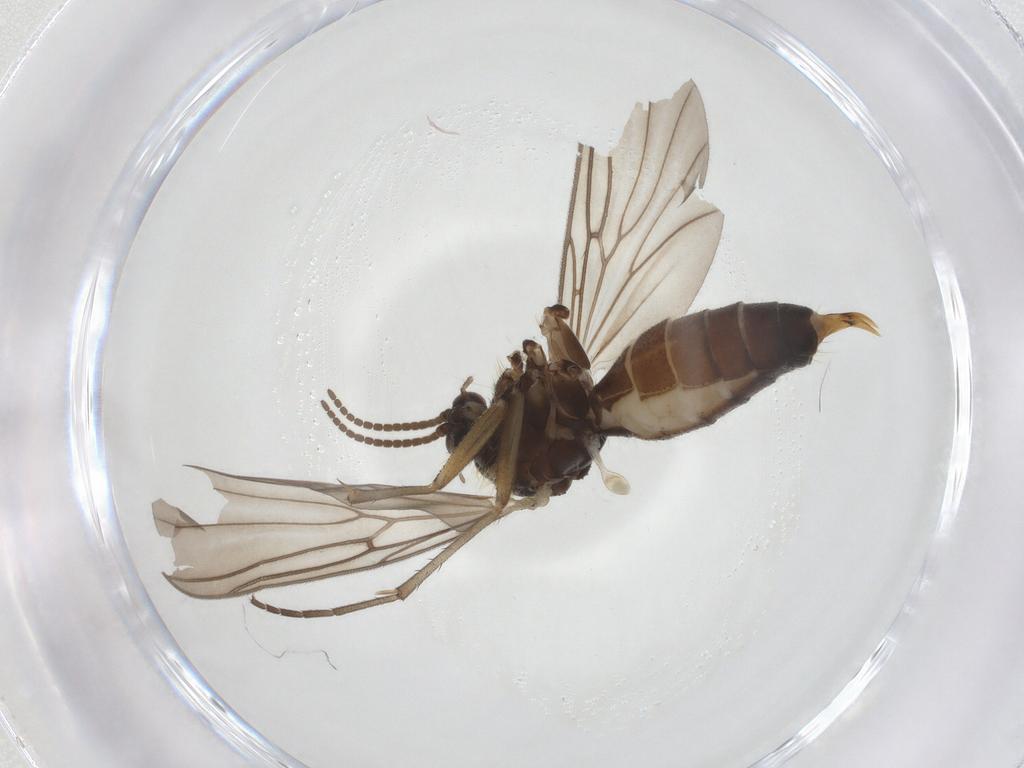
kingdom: Animalia
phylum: Arthropoda
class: Insecta
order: Diptera
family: Mycetophilidae
